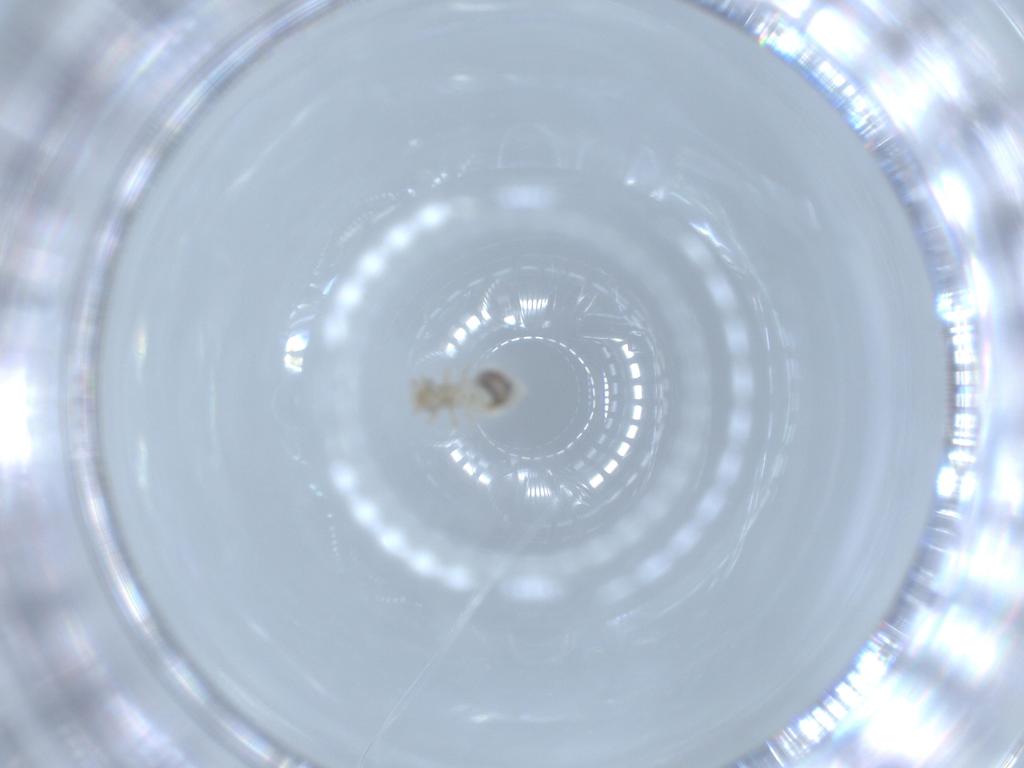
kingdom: Animalia
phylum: Arthropoda
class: Insecta
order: Psocodea
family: Amphipsocidae
